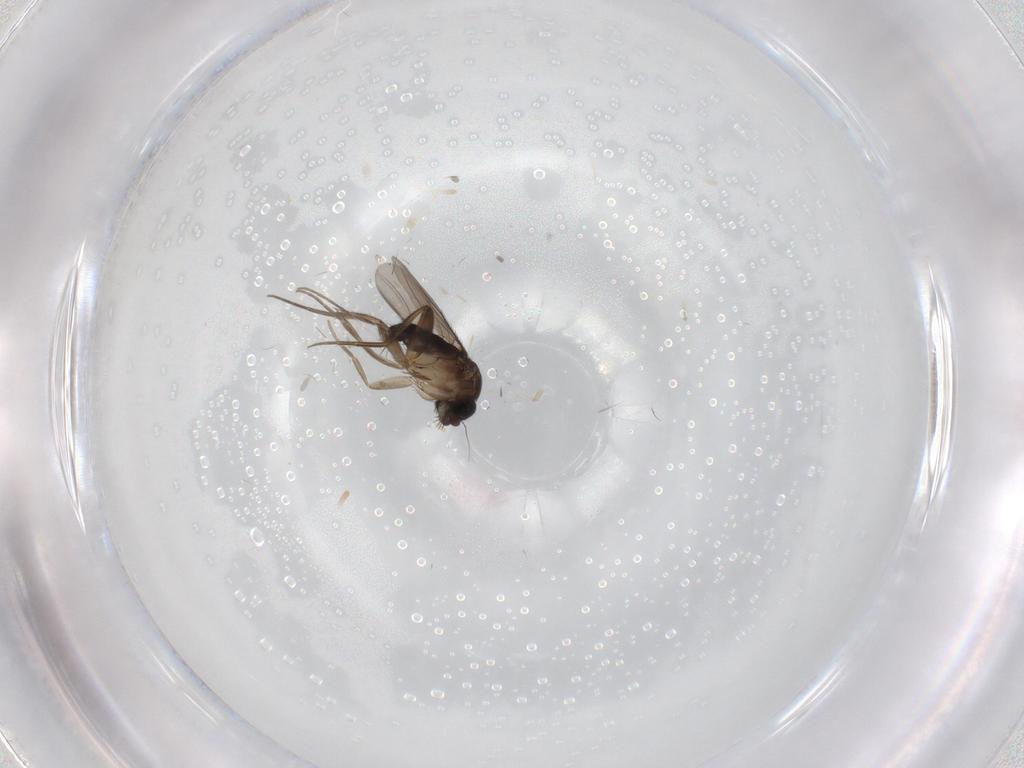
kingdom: Animalia
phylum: Arthropoda
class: Insecta
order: Diptera
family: Phoridae
